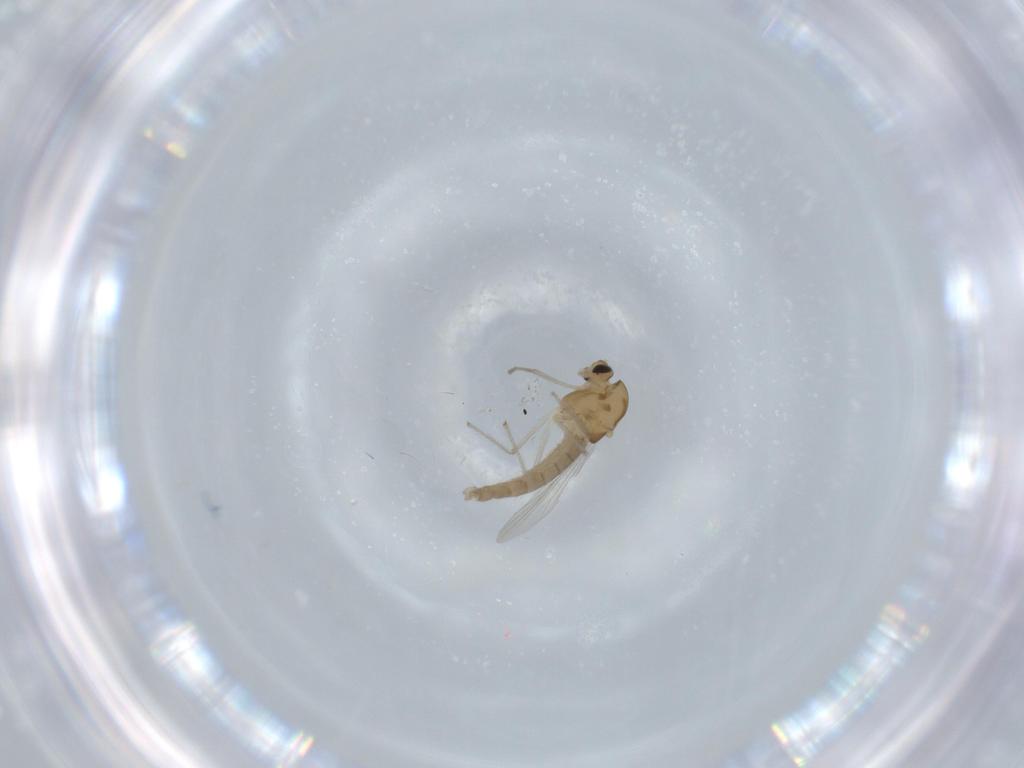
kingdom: Animalia
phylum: Arthropoda
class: Insecta
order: Diptera
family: Chironomidae
